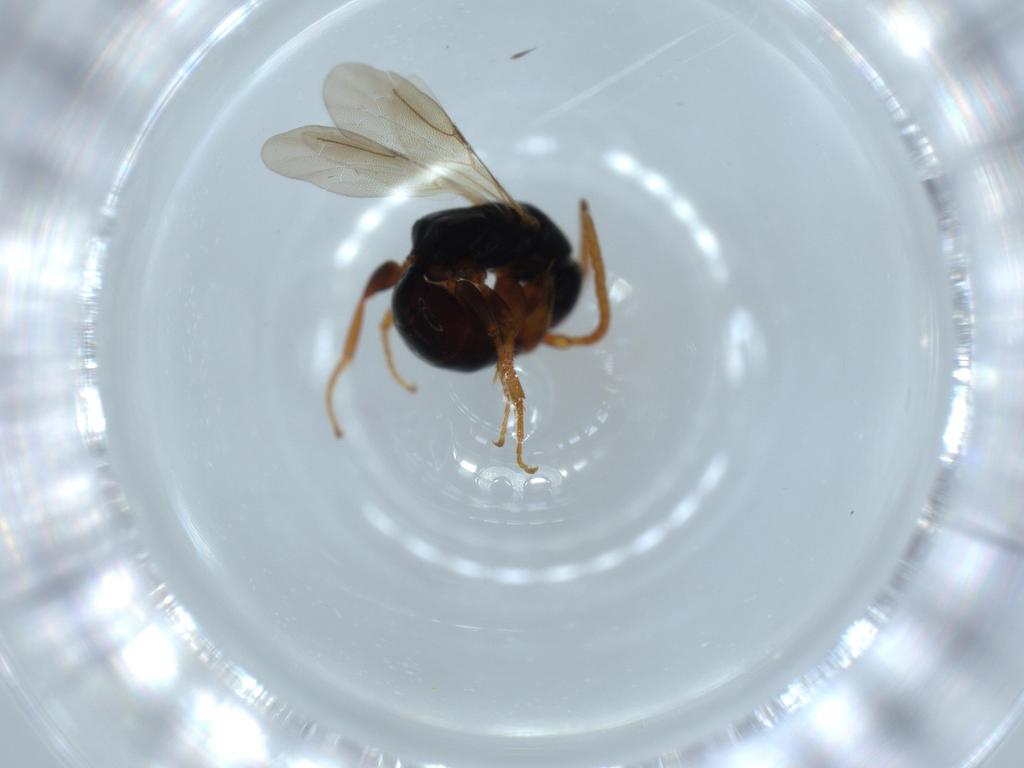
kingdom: Animalia
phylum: Arthropoda
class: Insecta
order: Hymenoptera
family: Bethylidae
